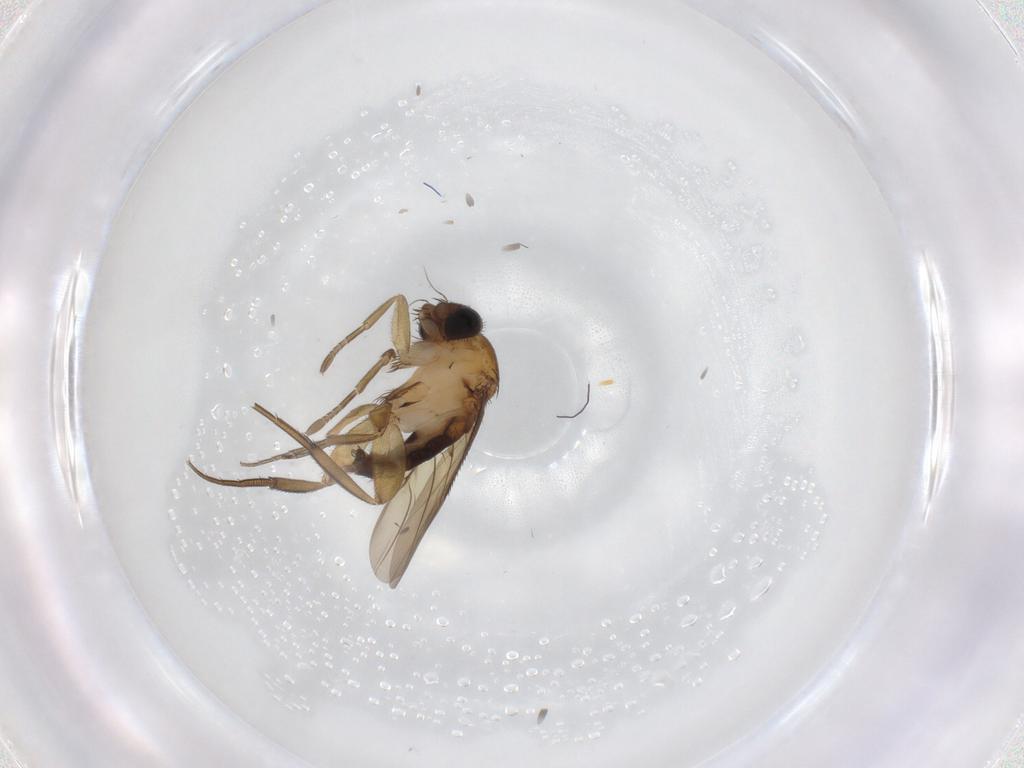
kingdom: Animalia
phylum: Arthropoda
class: Insecta
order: Diptera
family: Phoridae
